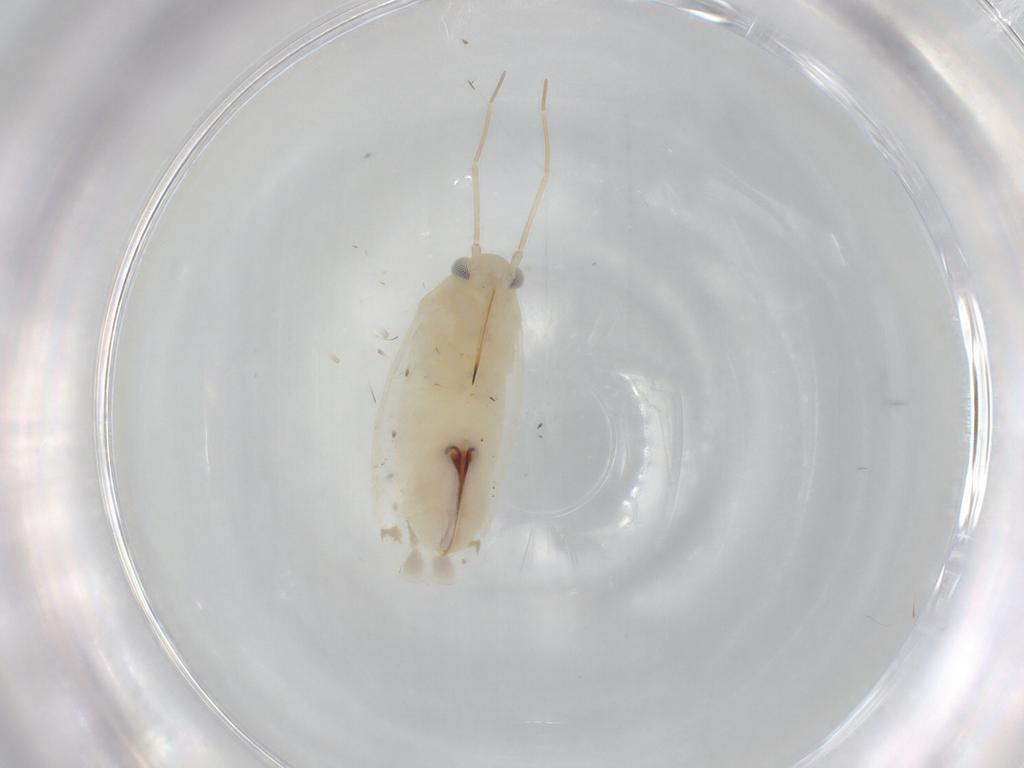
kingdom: Animalia
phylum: Arthropoda
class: Insecta
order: Hemiptera
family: Miridae
